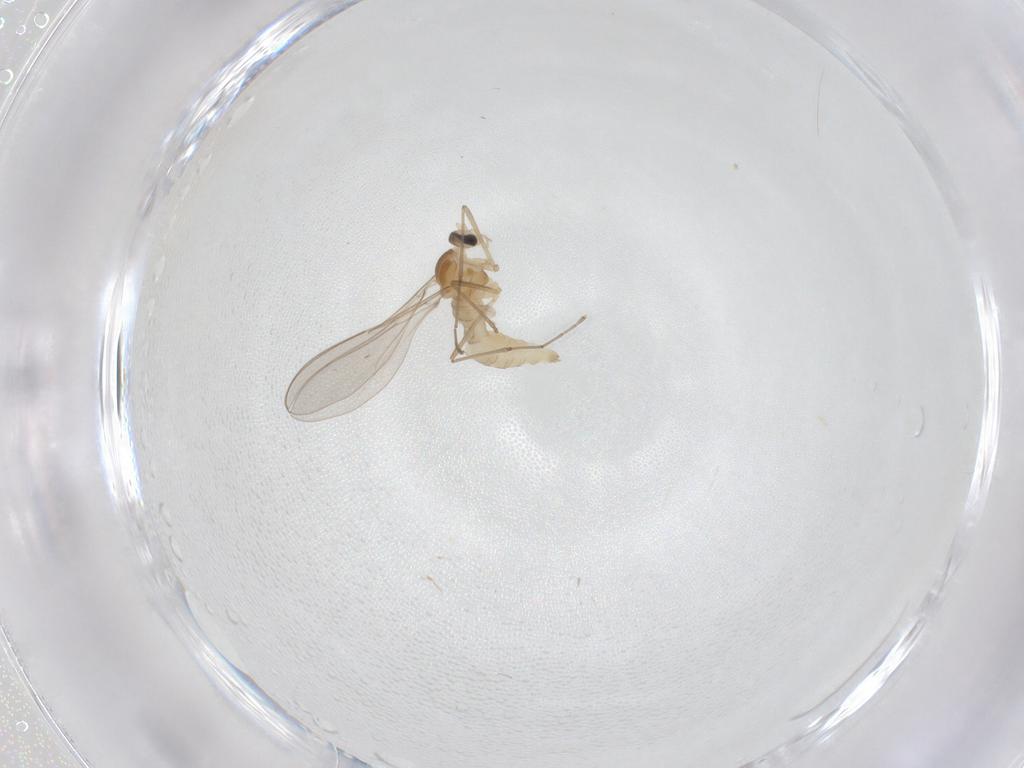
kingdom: Animalia
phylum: Arthropoda
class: Insecta
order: Diptera
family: Cecidomyiidae
